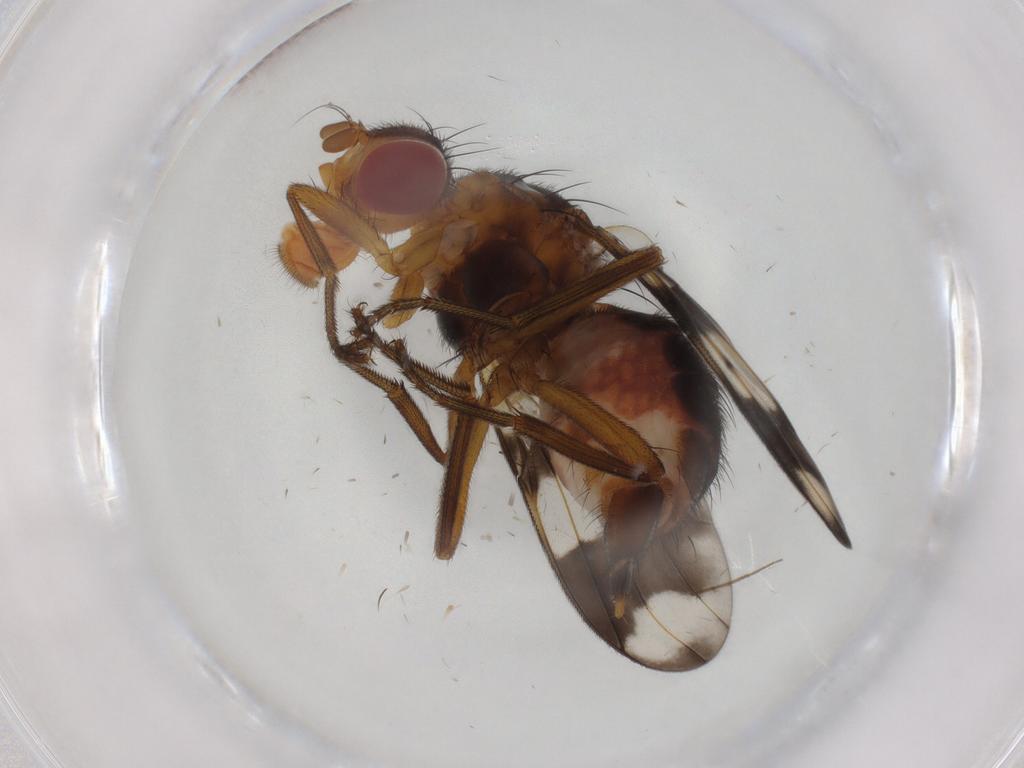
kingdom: Animalia
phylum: Arthropoda
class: Insecta
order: Diptera
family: Richardiidae
